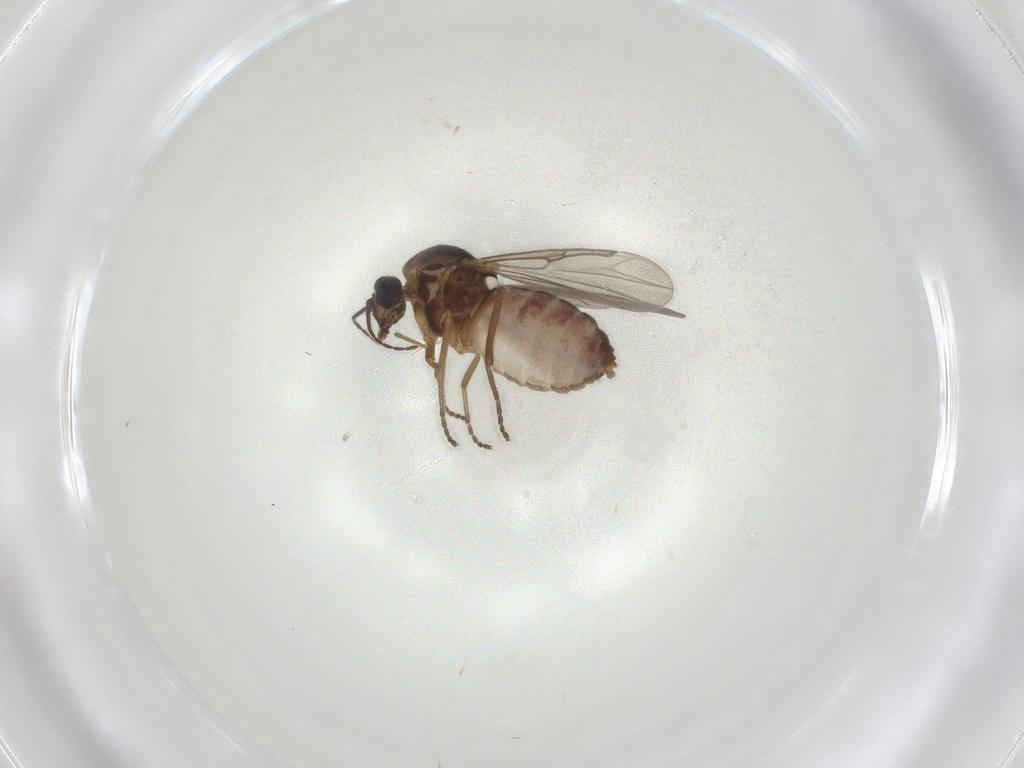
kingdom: Animalia
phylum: Arthropoda
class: Insecta
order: Diptera
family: Ceratopogonidae
